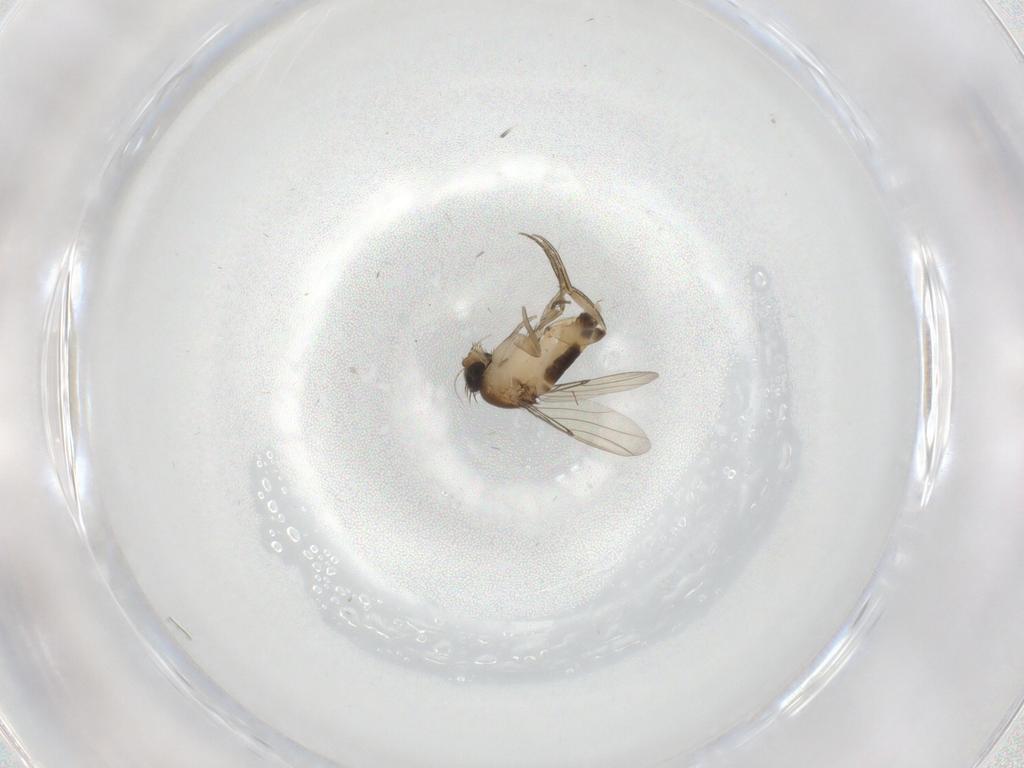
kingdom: Animalia
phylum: Arthropoda
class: Insecta
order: Diptera
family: Phoridae
